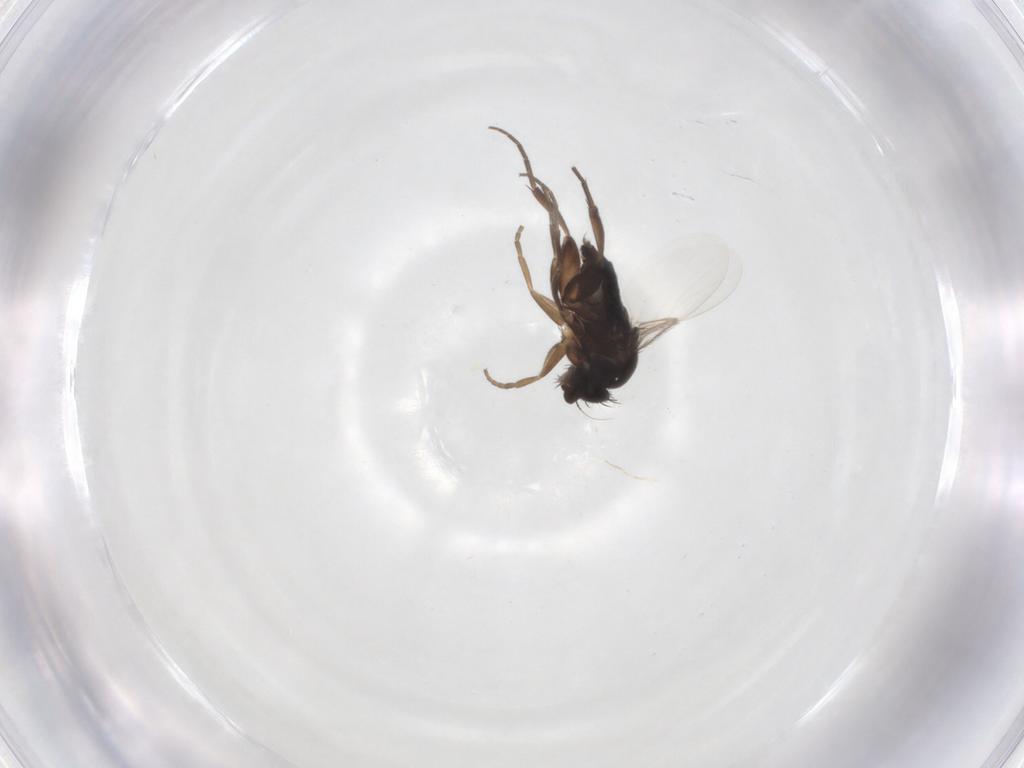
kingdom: Animalia
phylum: Arthropoda
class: Insecta
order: Diptera
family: Phoridae
